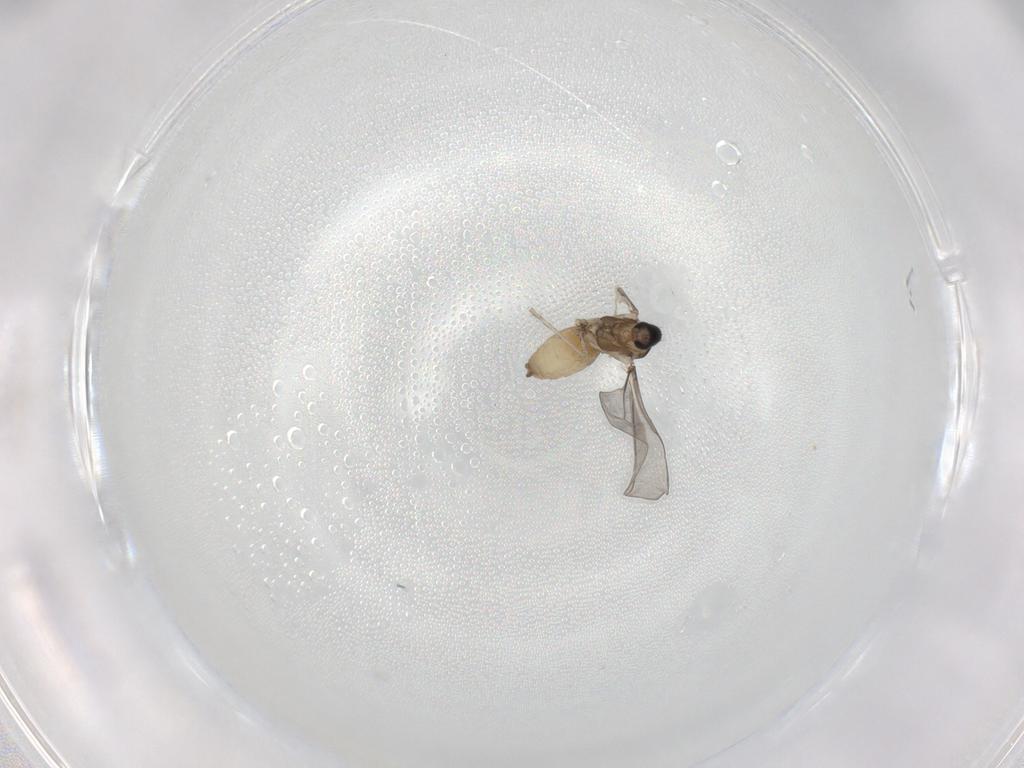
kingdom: Animalia
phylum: Arthropoda
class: Insecta
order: Diptera
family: Cecidomyiidae
